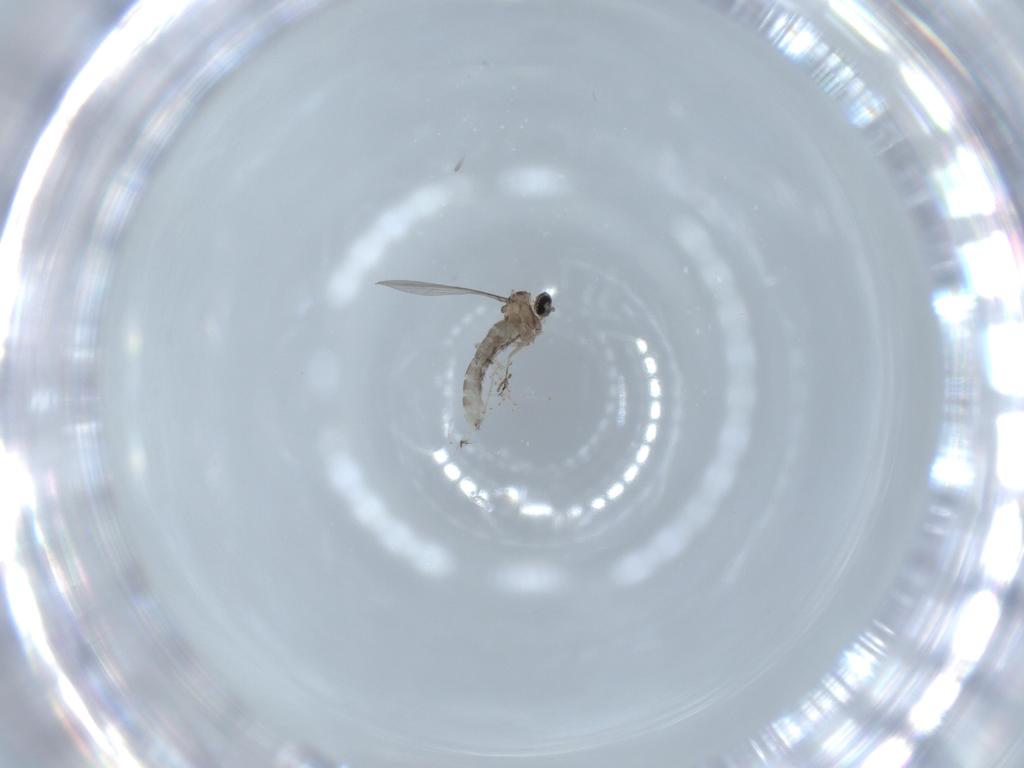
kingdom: Animalia
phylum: Arthropoda
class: Insecta
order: Diptera
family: Cecidomyiidae
